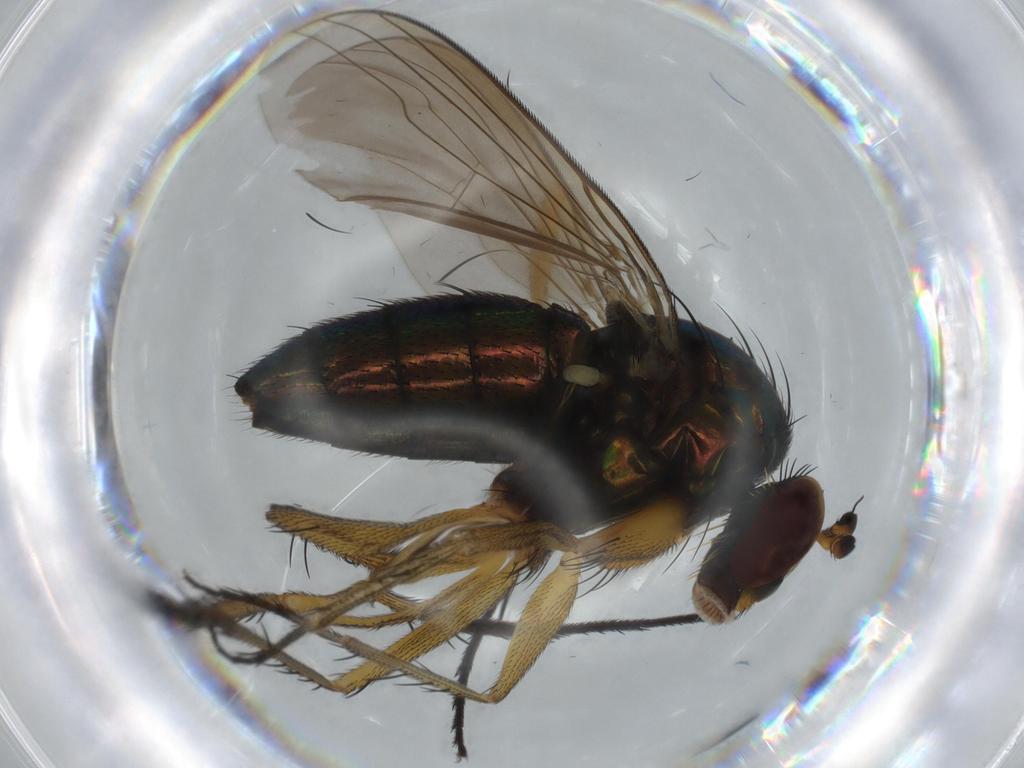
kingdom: Animalia
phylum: Arthropoda
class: Insecta
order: Diptera
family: Dolichopodidae
